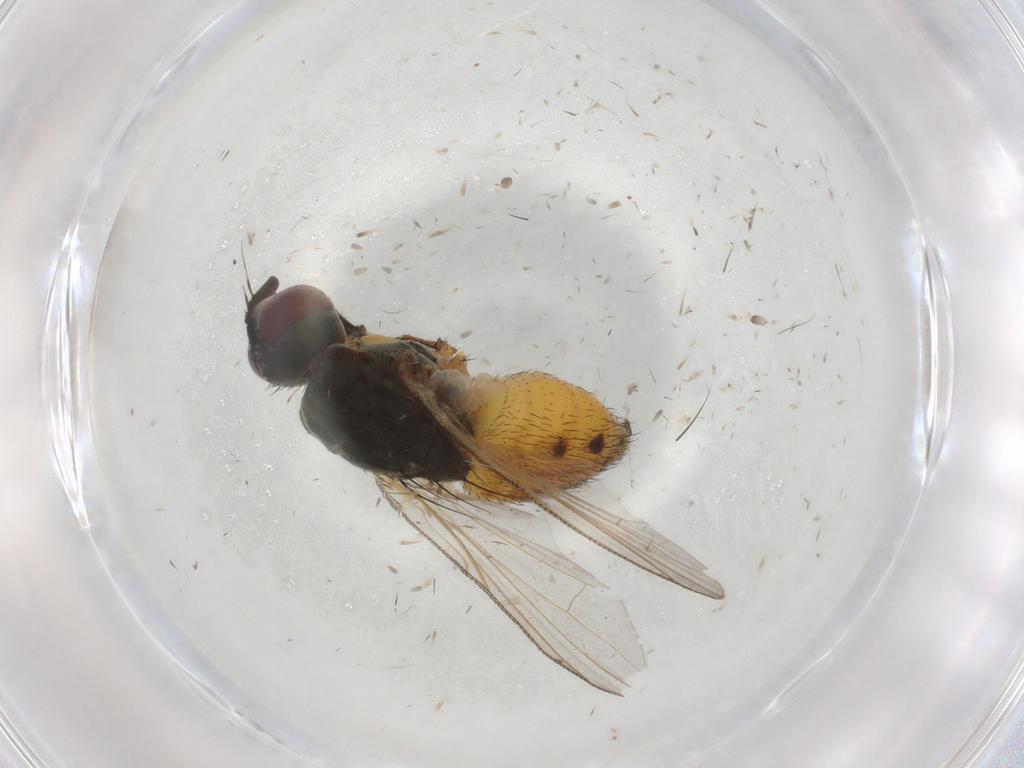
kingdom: Animalia
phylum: Arthropoda
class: Insecta
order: Diptera
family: Muscidae
